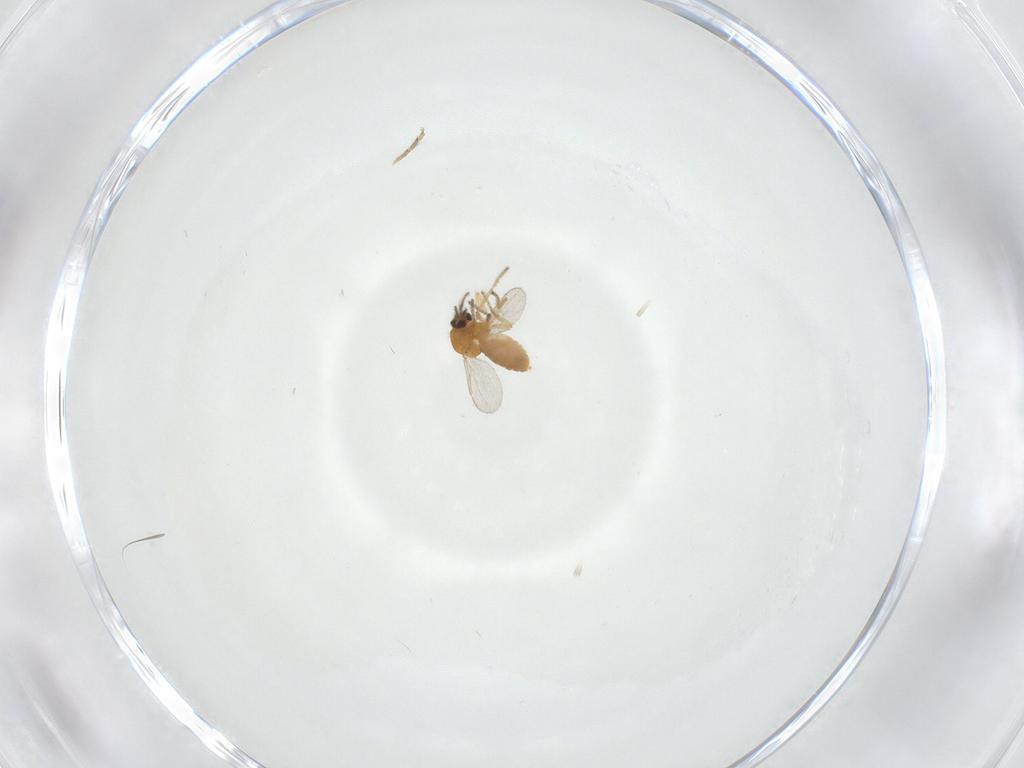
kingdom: Animalia
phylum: Arthropoda
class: Insecta
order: Diptera
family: Ceratopogonidae
